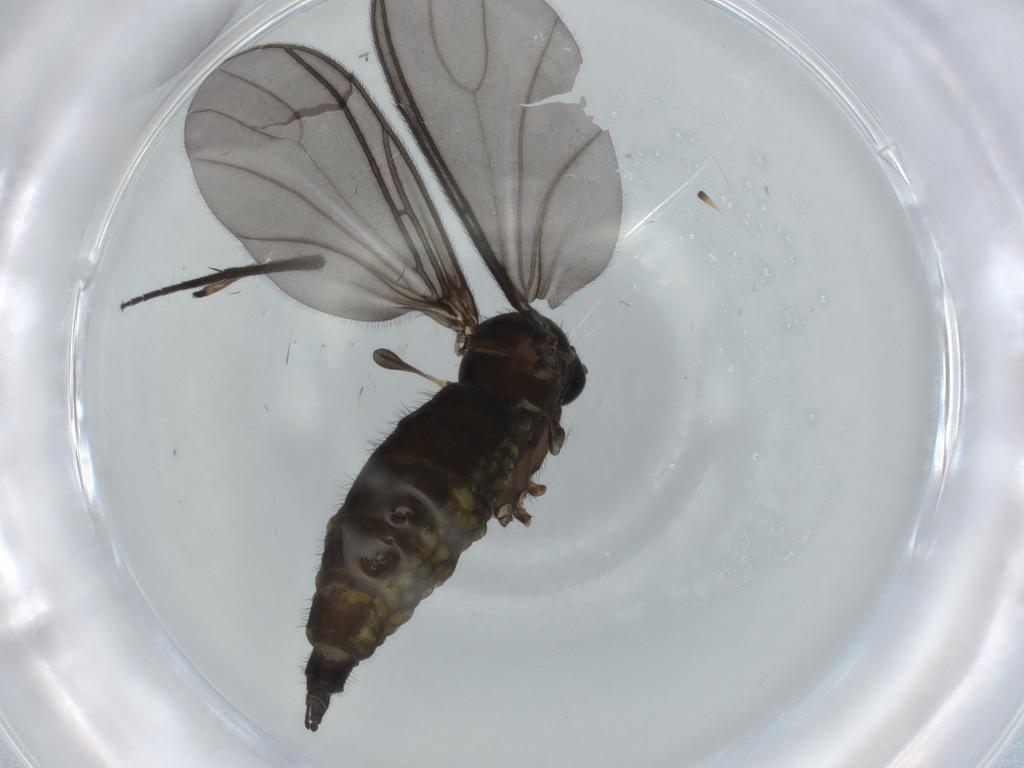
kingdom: Animalia
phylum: Arthropoda
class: Insecta
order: Diptera
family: Sciaridae
